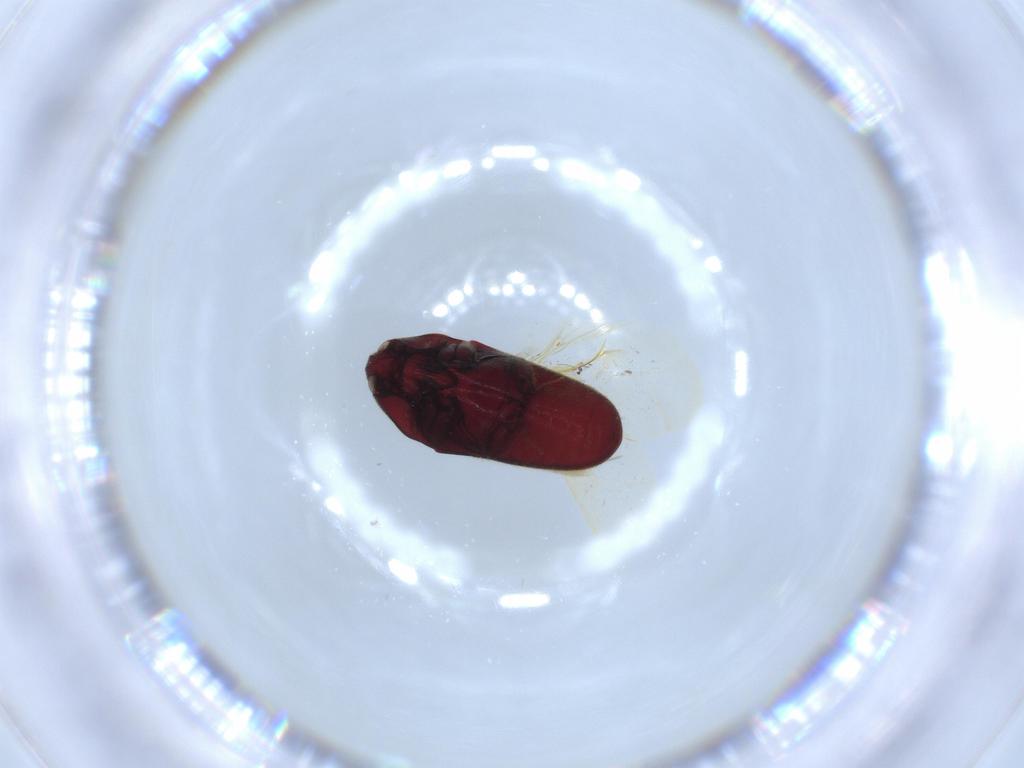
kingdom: Animalia
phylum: Arthropoda
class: Insecta
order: Coleoptera
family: Throscidae
